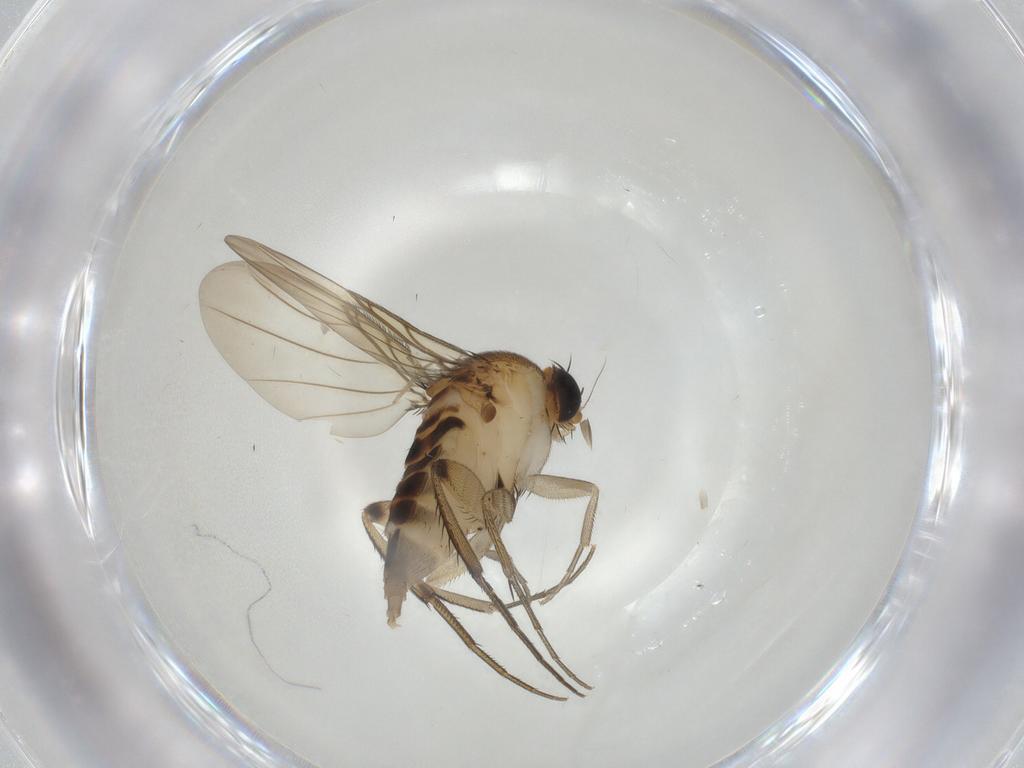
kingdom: Animalia
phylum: Arthropoda
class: Insecta
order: Diptera
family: Phoridae
